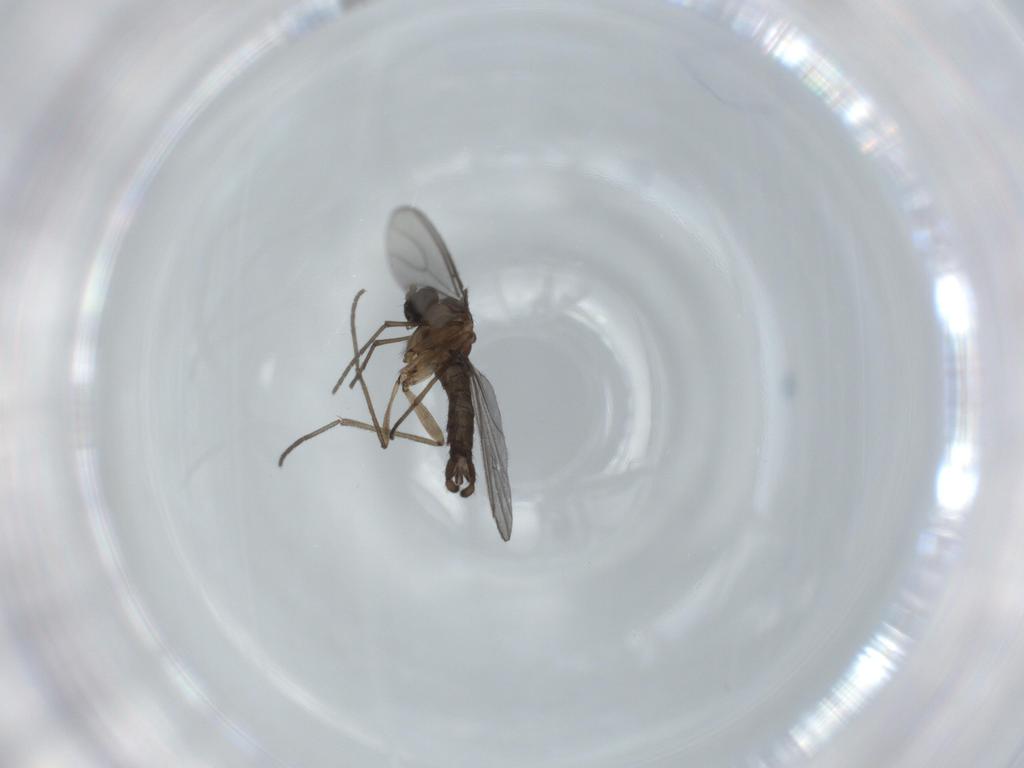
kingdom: Animalia
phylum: Arthropoda
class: Insecta
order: Diptera
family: Sciaridae
